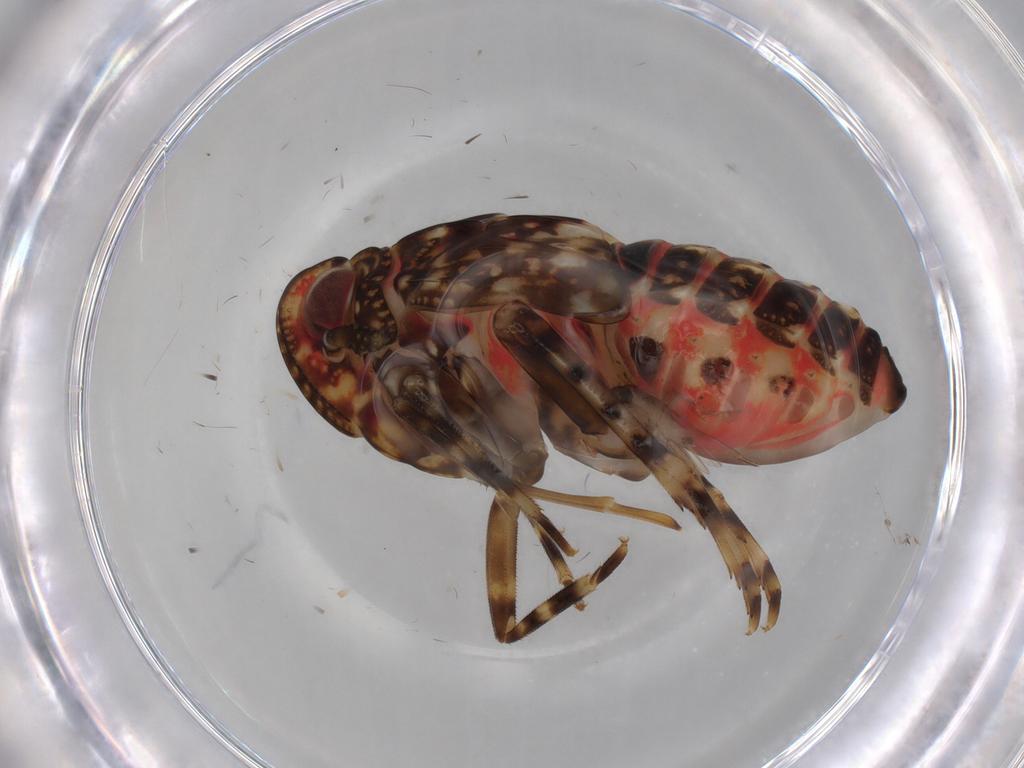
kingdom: Animalia
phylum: Arthropoda
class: Insecta
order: Hemiptera
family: Delphacidae
